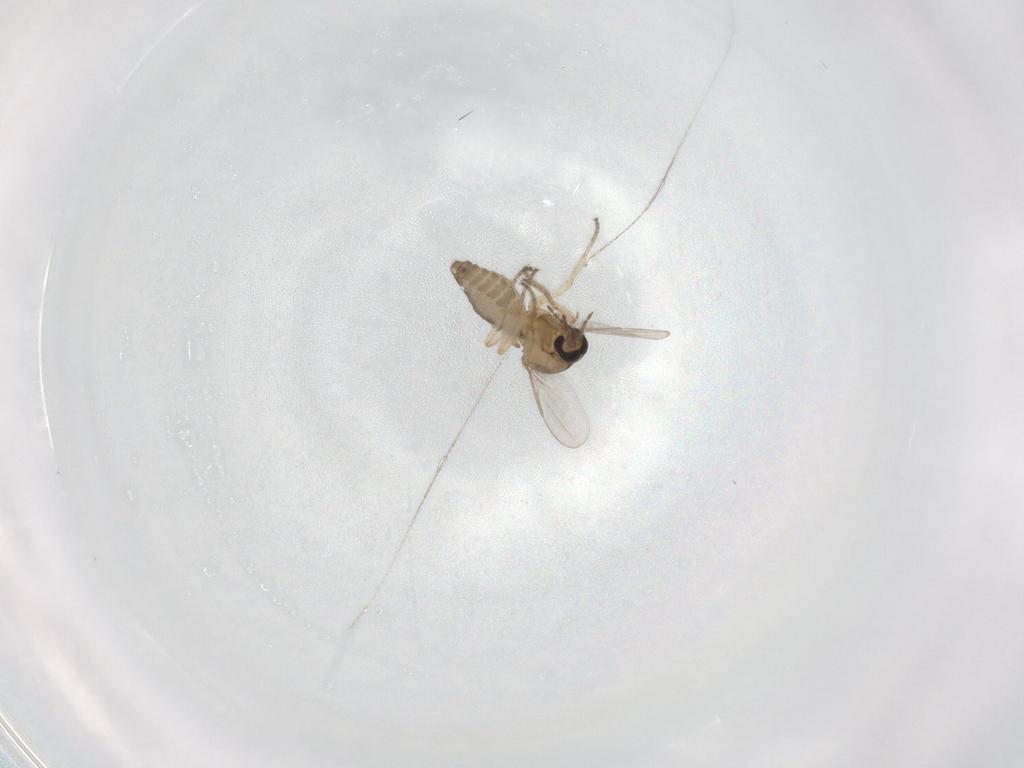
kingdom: Animalia
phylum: Arthropoda
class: Insecta
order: Diptera
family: Ceratopogonidae
